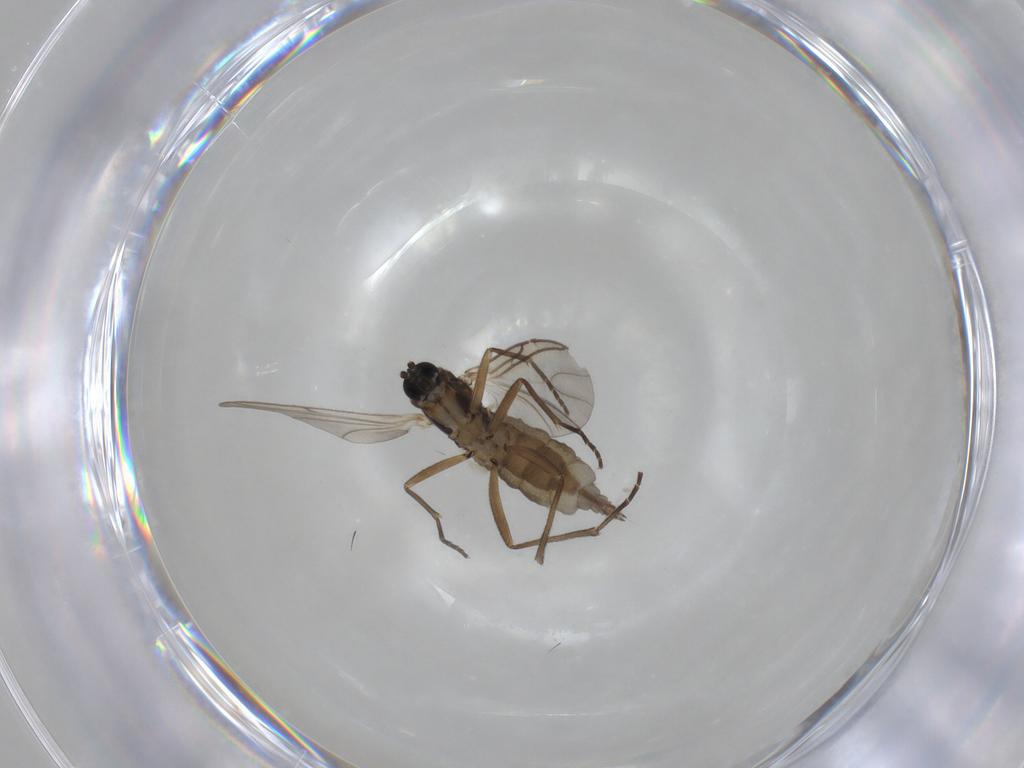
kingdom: Animalia
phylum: Arthropoda
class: Insecta
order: Diptera
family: Sciaridae
